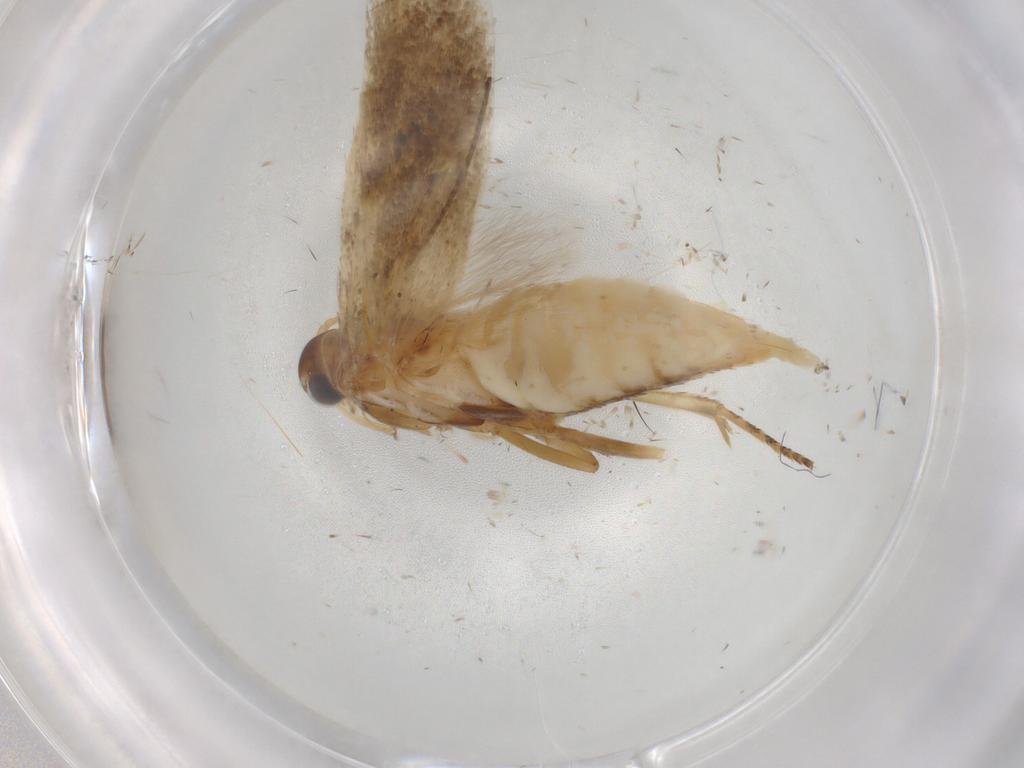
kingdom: Animalia
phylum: Arthropoda
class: Insecta
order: Lepidoptera
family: Gelechiidae
